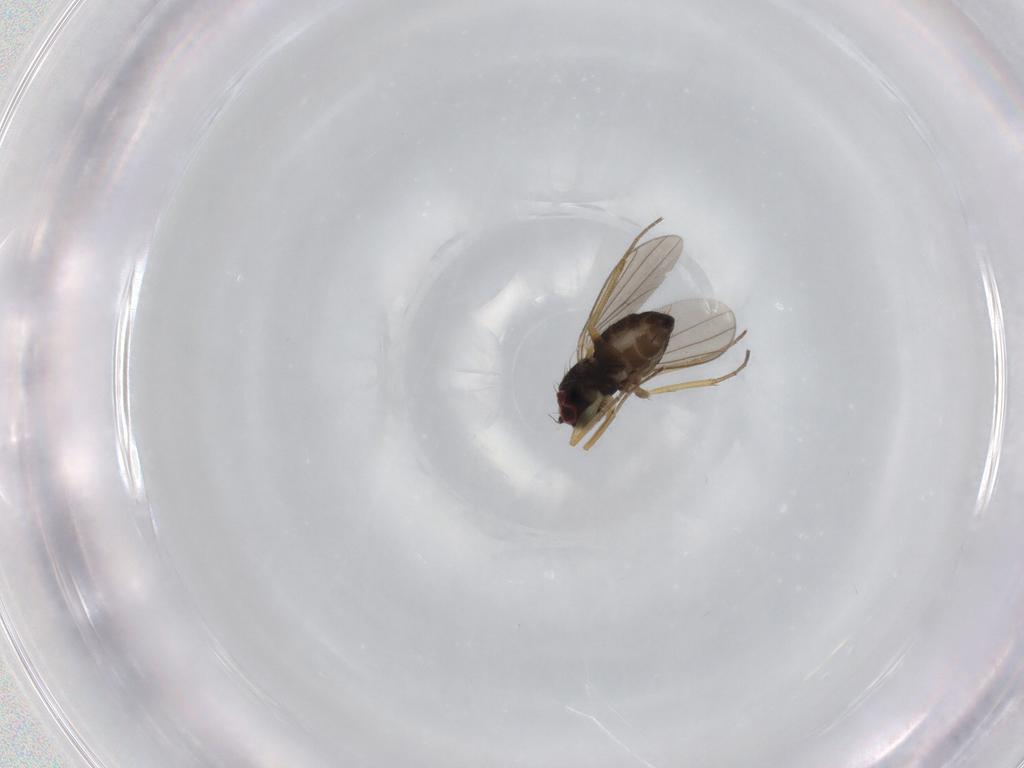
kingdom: Animalia
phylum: Arthropoda
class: Insecta
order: Diptera
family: Dolichopodidae
